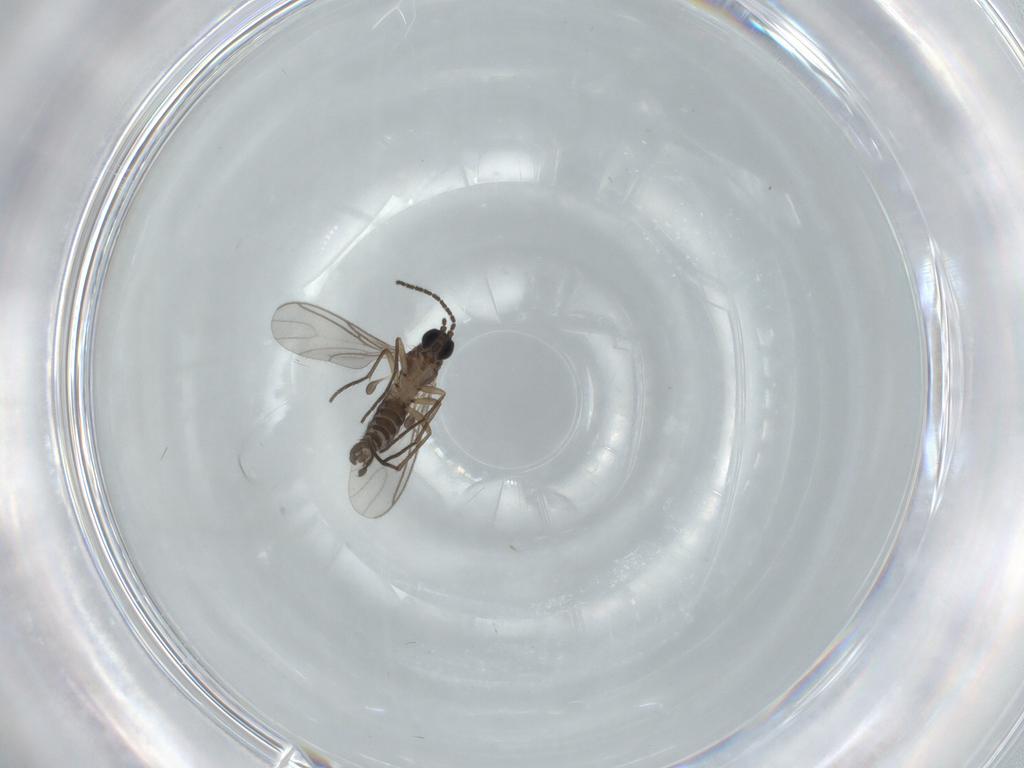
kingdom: Animalia
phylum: Arthropoda
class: Insecta
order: Diptera
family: Sciaridae
